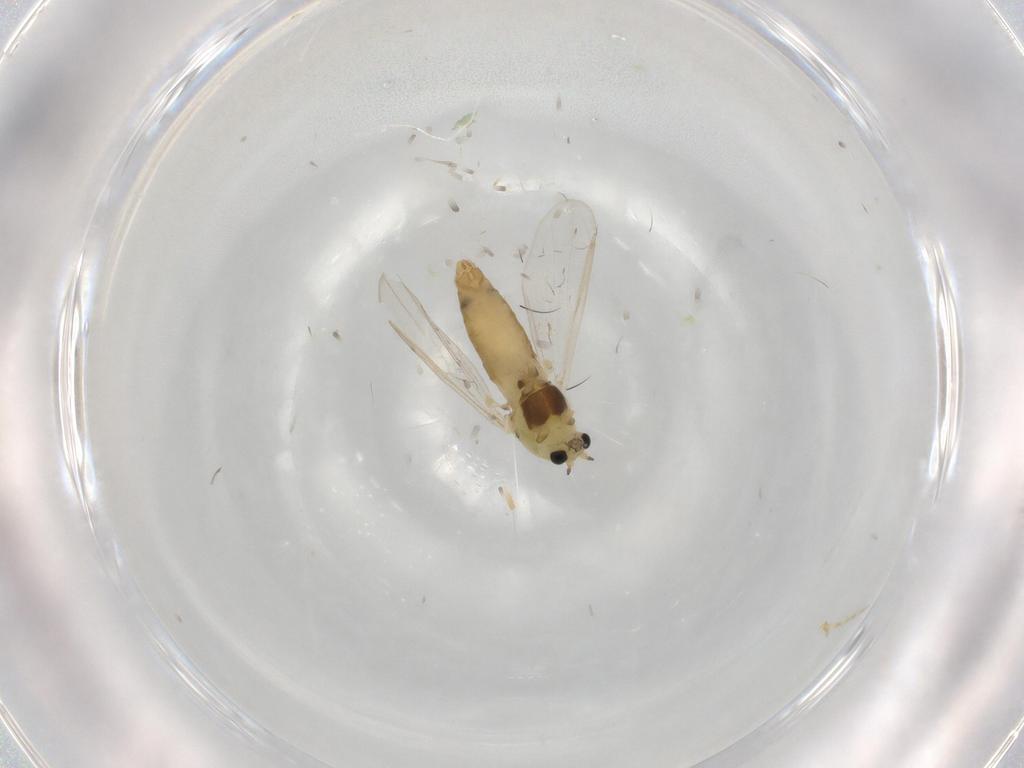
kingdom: Animalia
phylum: Arthropoda
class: Insecta
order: Diptera
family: Chironomidae
